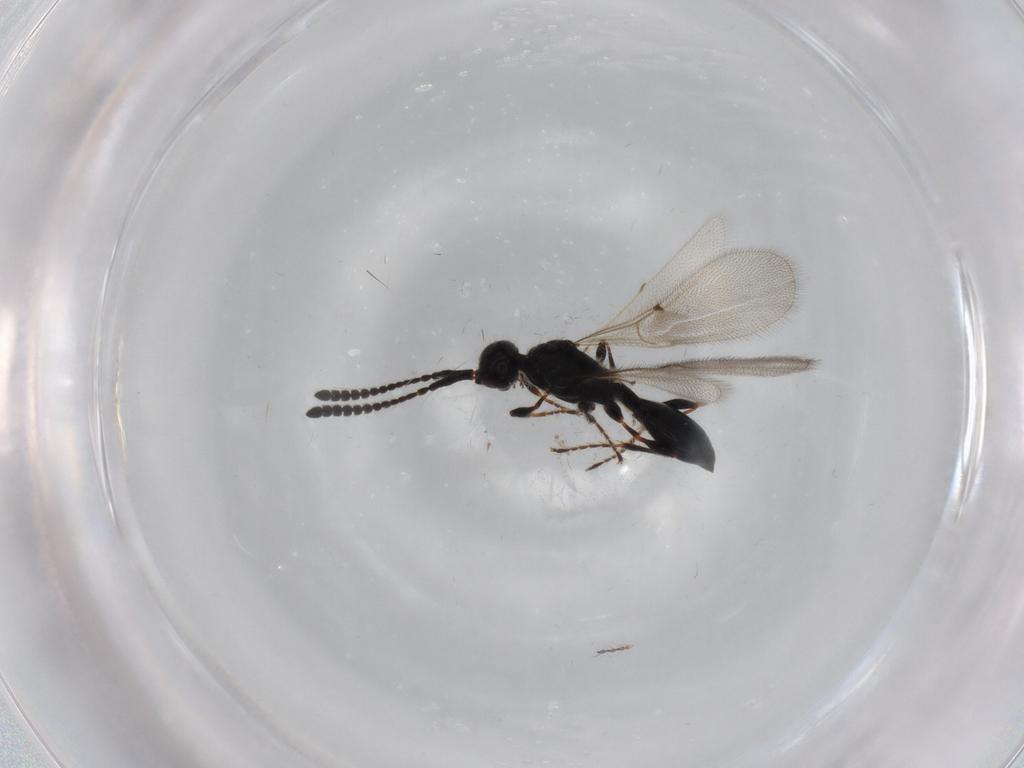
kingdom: Animalia
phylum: Arthropoda
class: Insecta
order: Hymenoptera
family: Diapriidae
